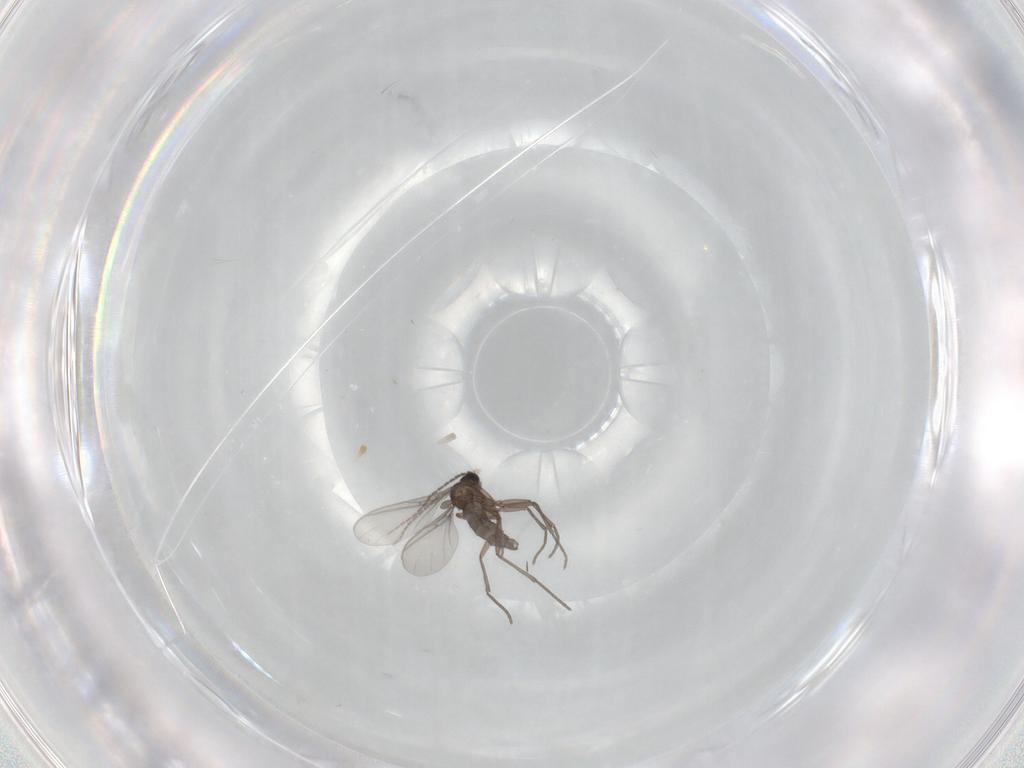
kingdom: Animalia
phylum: Arthropoda
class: Insecta
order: Diptera
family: Sciaridae
